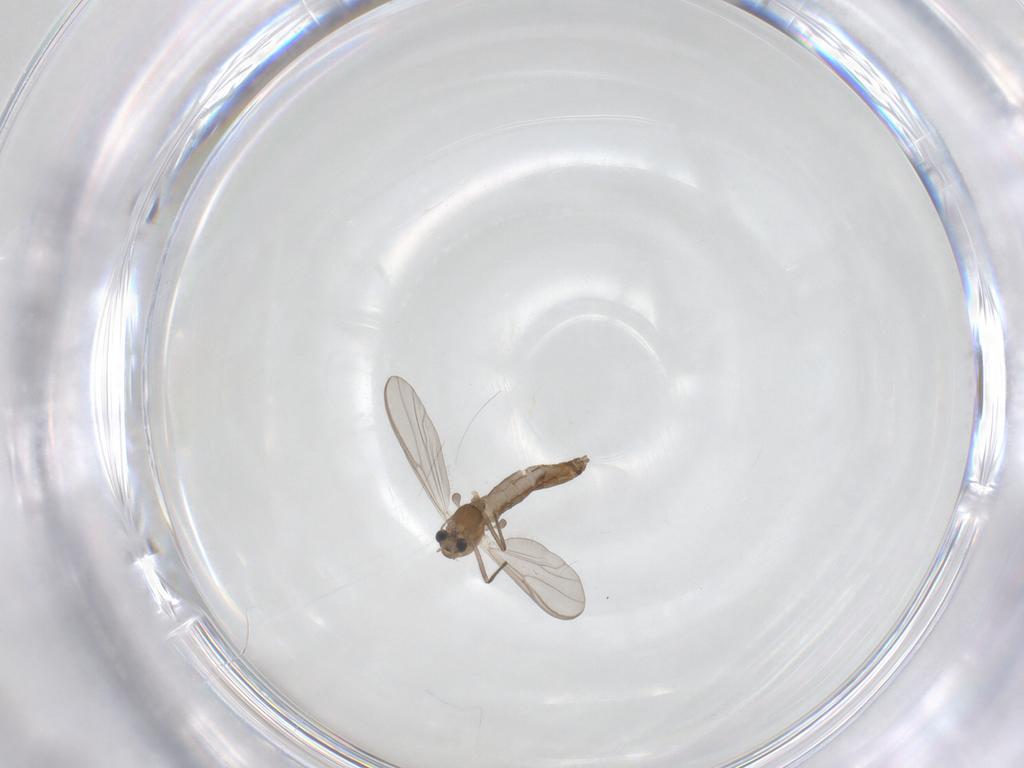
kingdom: Animalia
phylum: Arthropoda
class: Insecta
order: Diptera
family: Chironomidae
